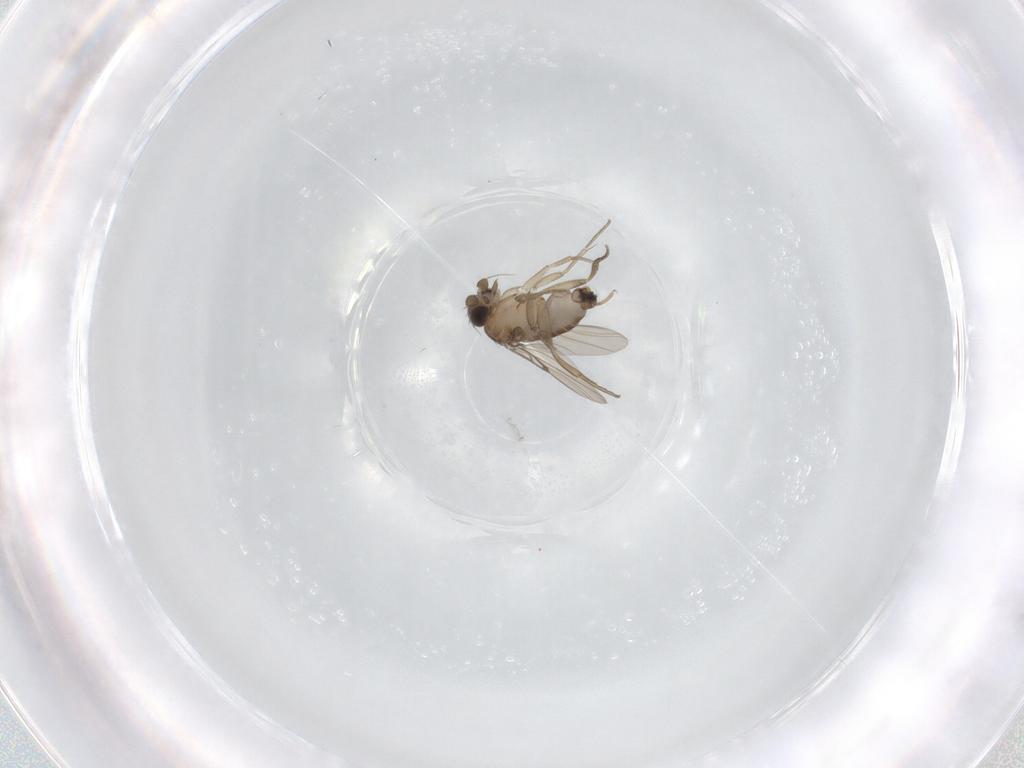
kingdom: Animalia
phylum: Arthropoda
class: Insecta
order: Diptera
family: Phoridae
